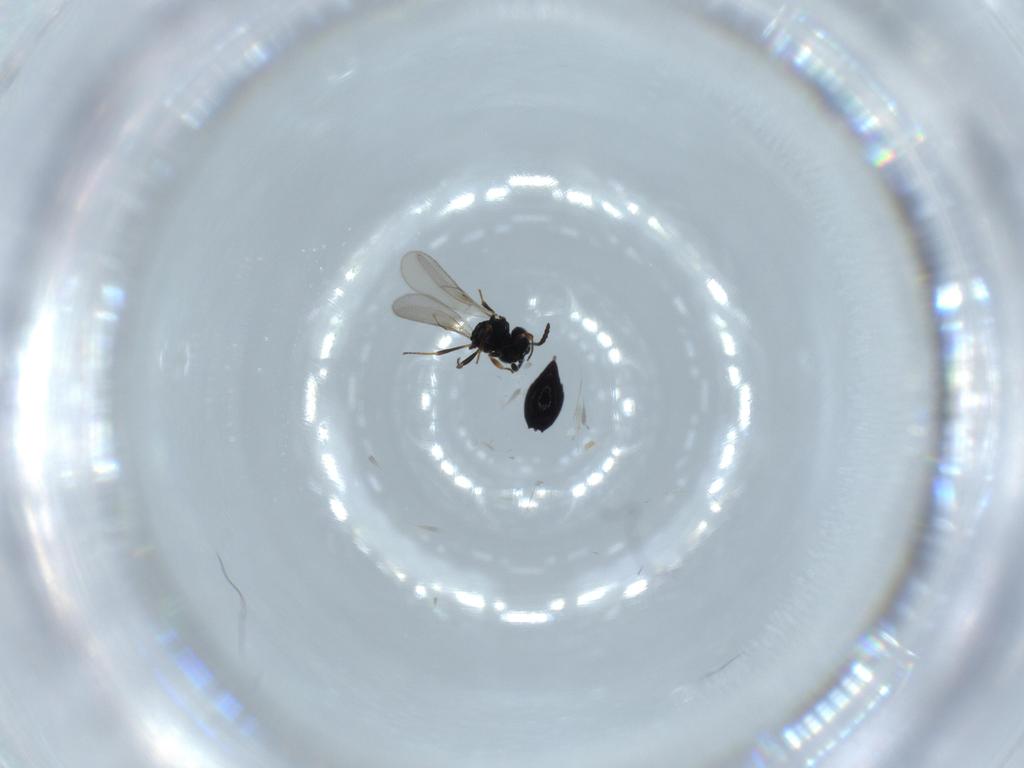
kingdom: Animalia
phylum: Arthropoda
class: Insecta
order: Hymenoptera
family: Scelionidae
